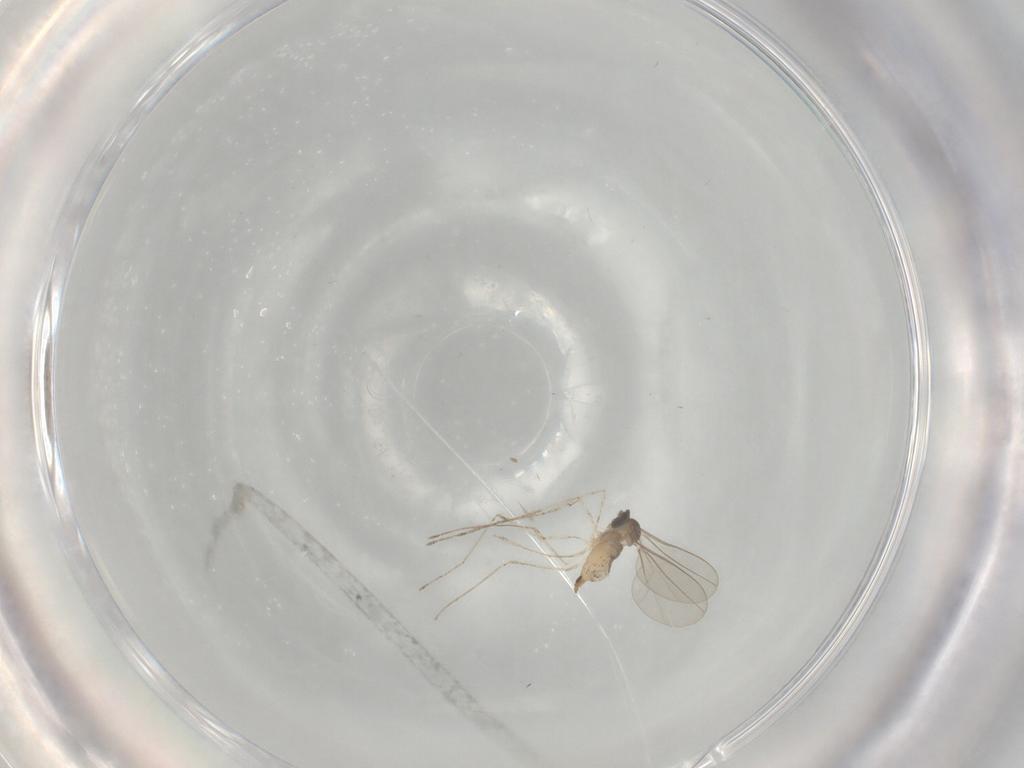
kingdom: Animalia
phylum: Arthropoda
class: Insecta
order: Diptera
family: Cecidomyiidae
